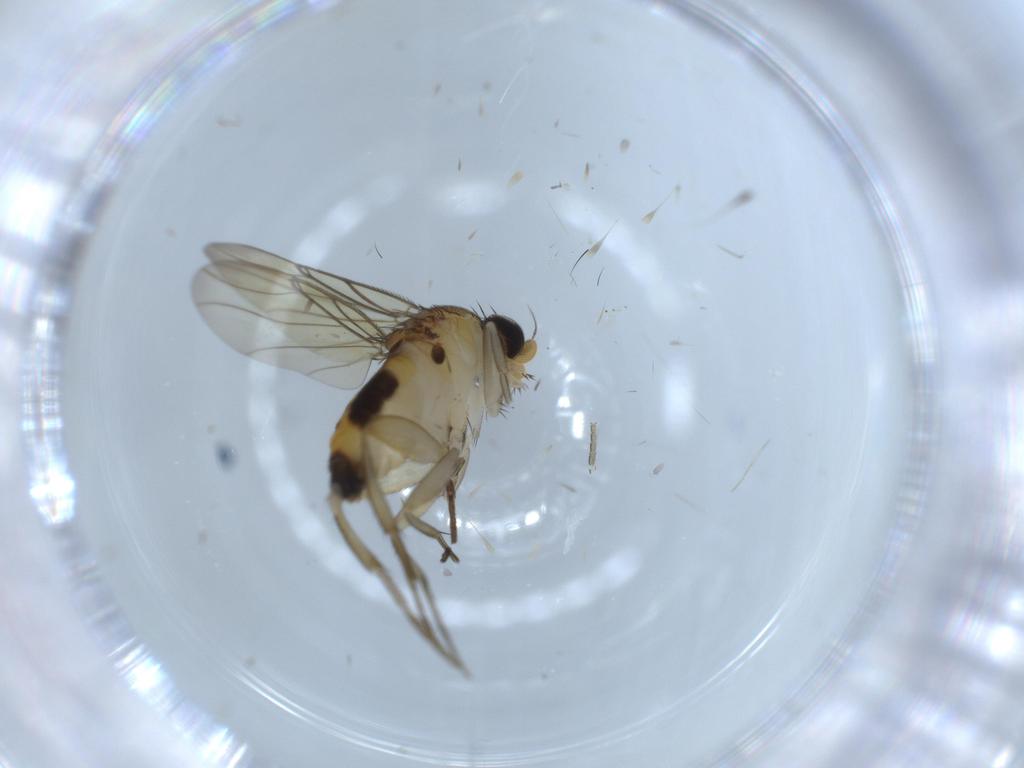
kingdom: Animalia
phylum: Arthropoda
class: Insecta
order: Diptera
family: Phoridae
